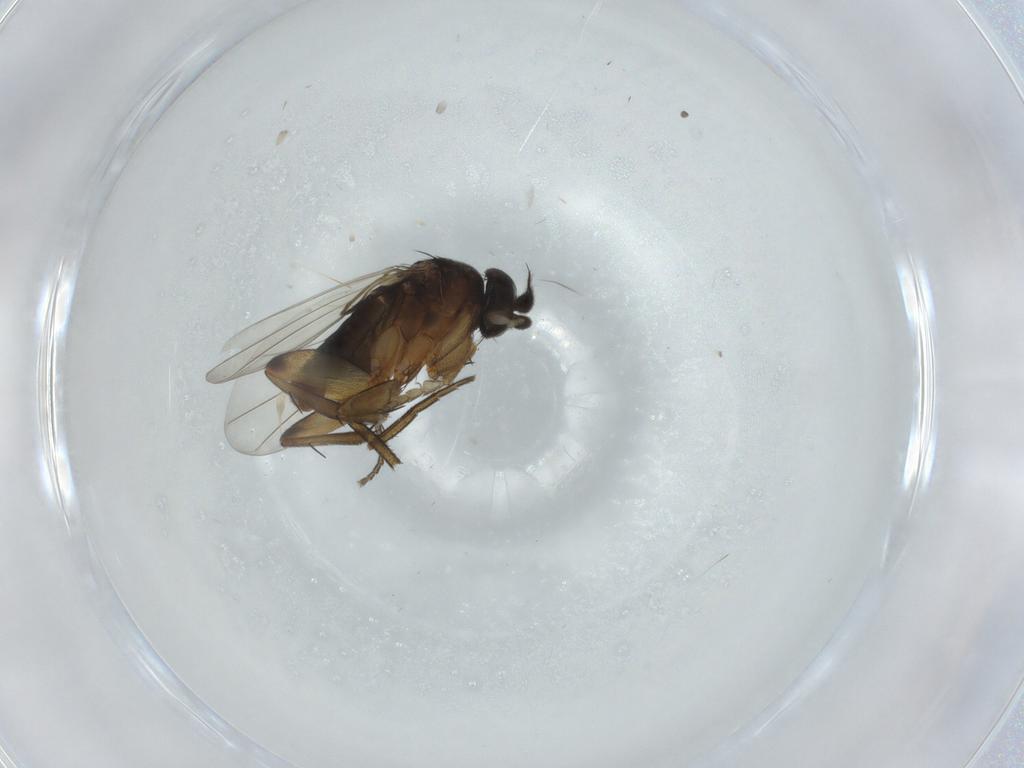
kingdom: Animalia
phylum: Arthropoda
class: Insecta
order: Diptera
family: Phoridae
